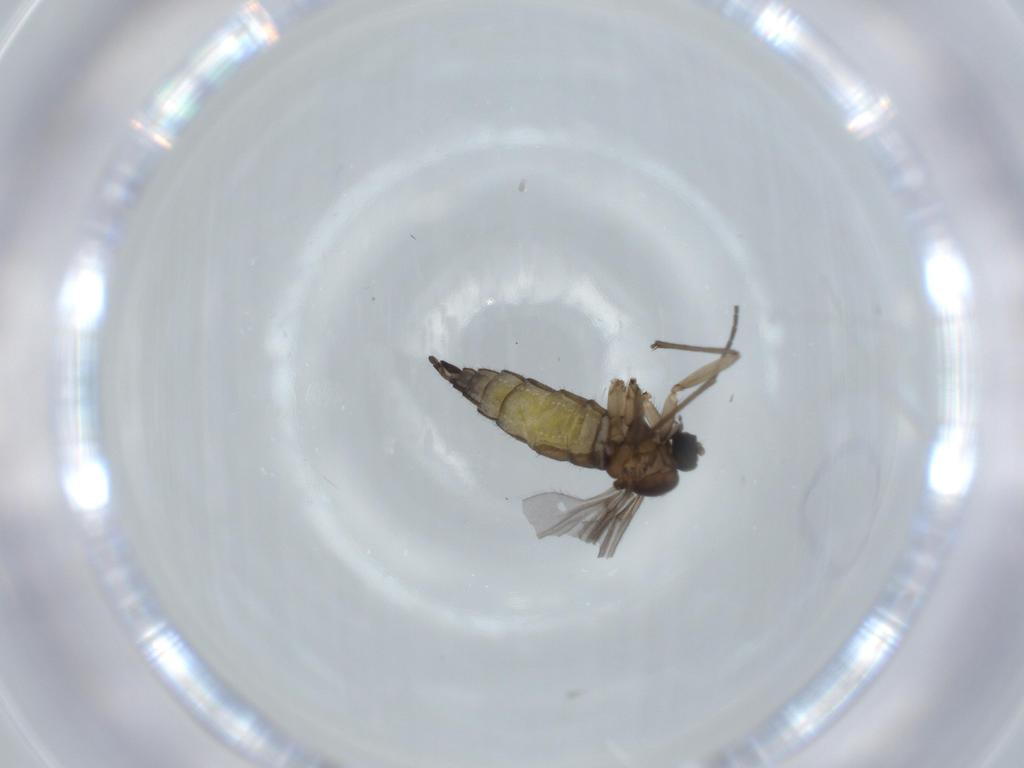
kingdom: Animalia
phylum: Arthropoda
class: Insecta
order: Diptera
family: Sciaridae
